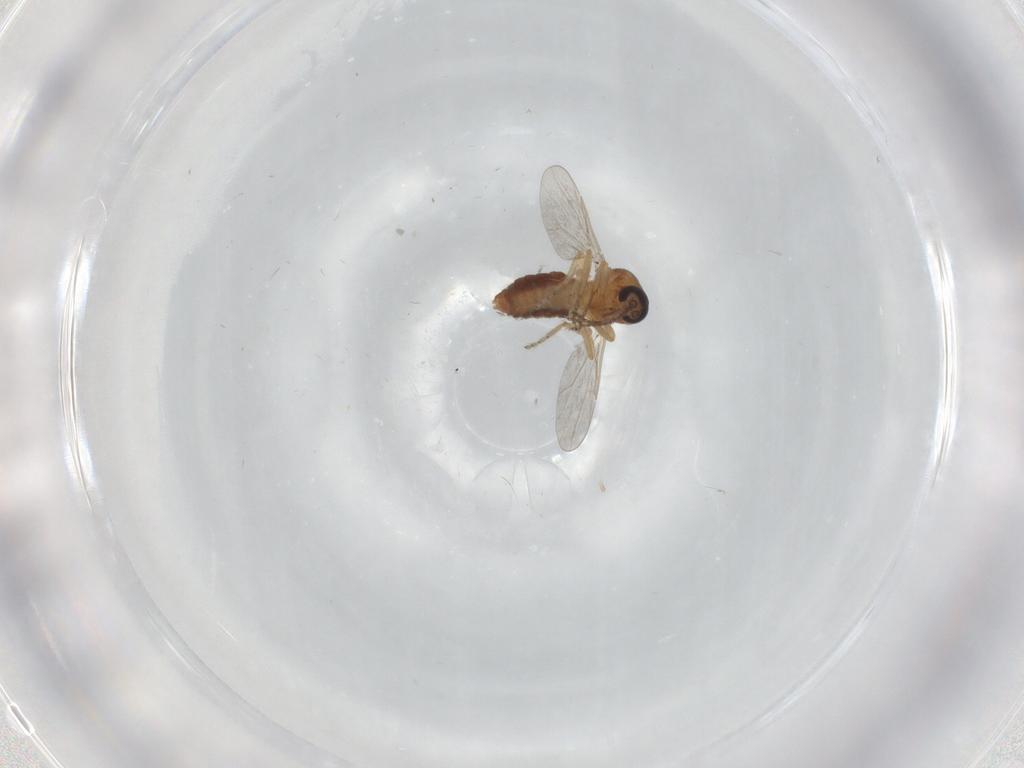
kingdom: Animalia
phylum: Arthropoda
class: Insecta
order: Diptera
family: Ceratopogonidae
